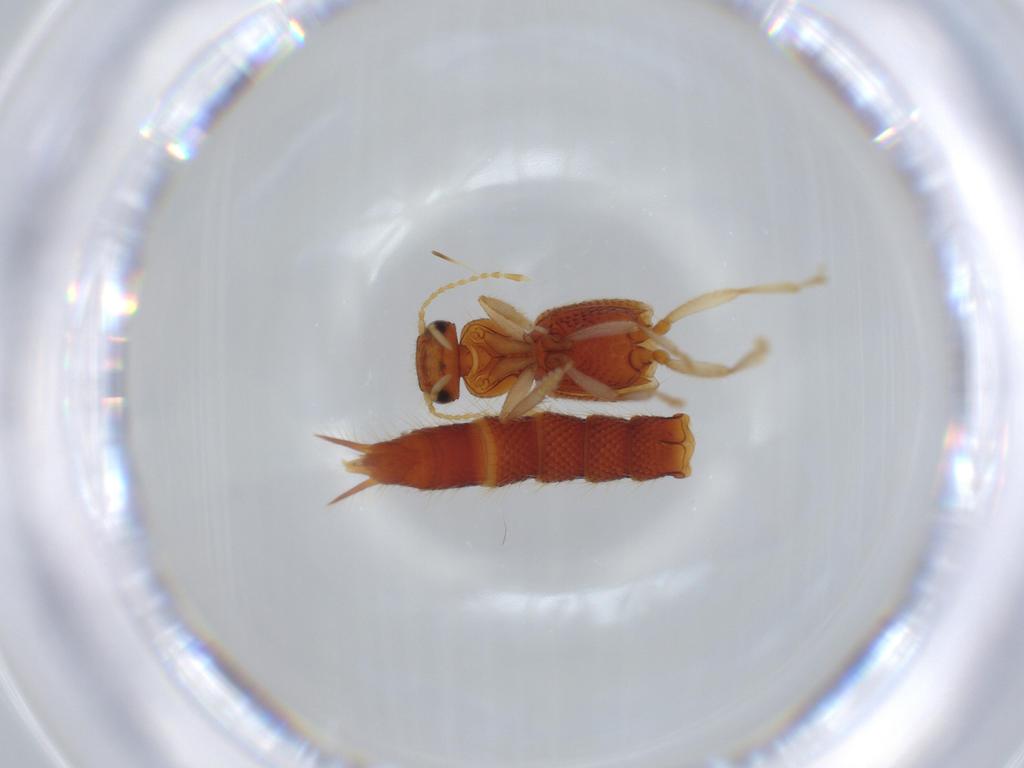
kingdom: Animalia
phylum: Arthropoda
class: Insecta
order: Coleoptera
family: Staphylinidae
